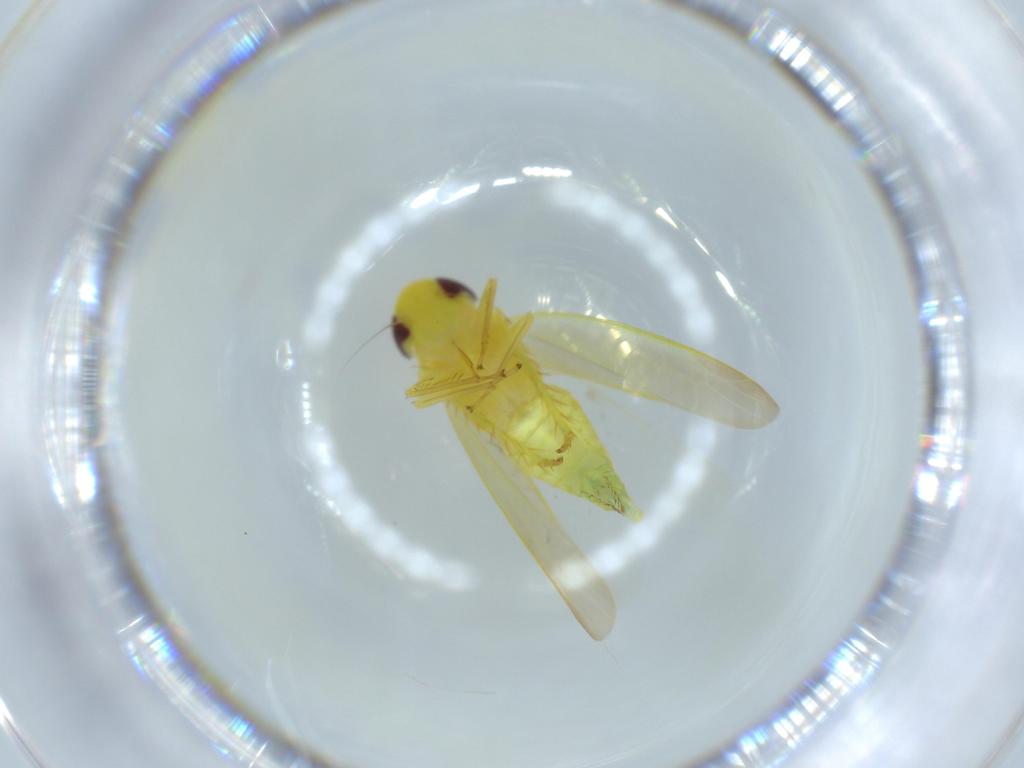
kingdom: Animalia
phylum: Arthropoda
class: Insecta
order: Hemiptera
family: Cicadellidae
